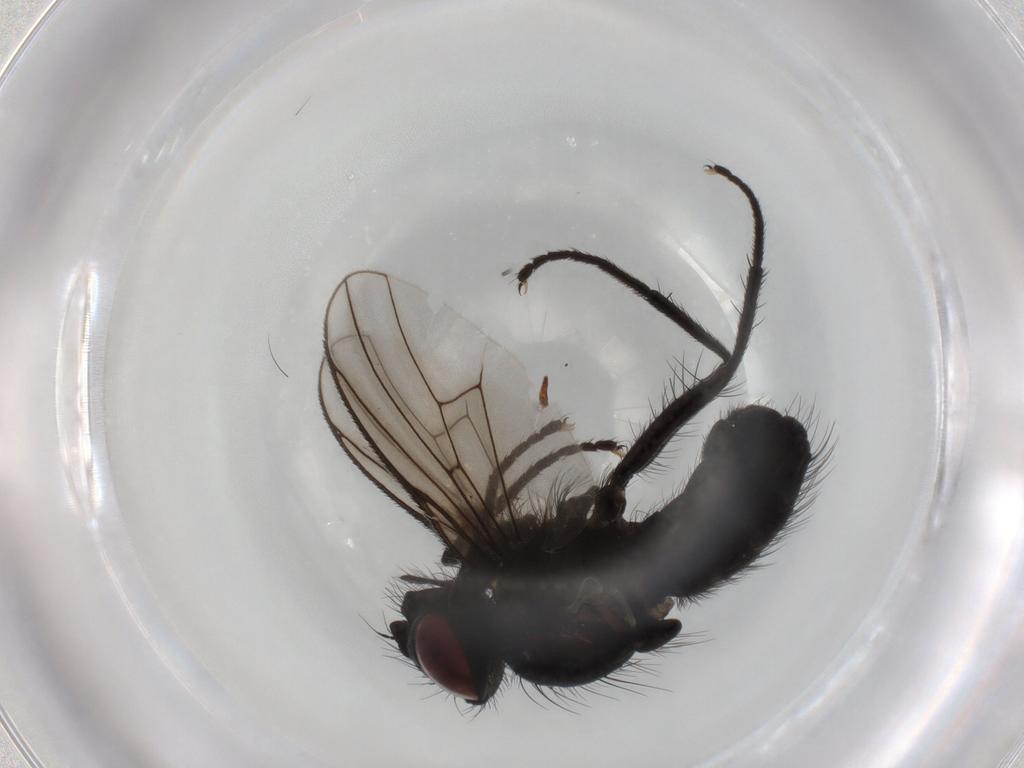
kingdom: Animalia
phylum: Arthropoda
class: Insecta
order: Diptera
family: Muscidae
